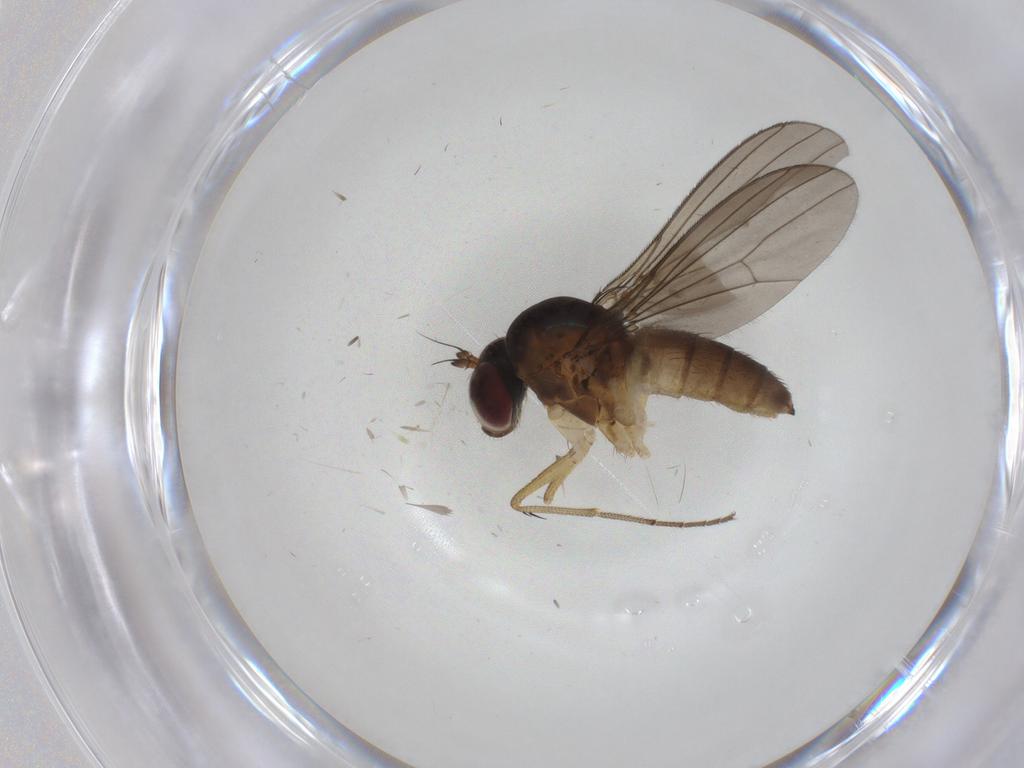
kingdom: Animalia
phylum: Arthropoda
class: Insecta
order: Diptera
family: Dolichopodidae
